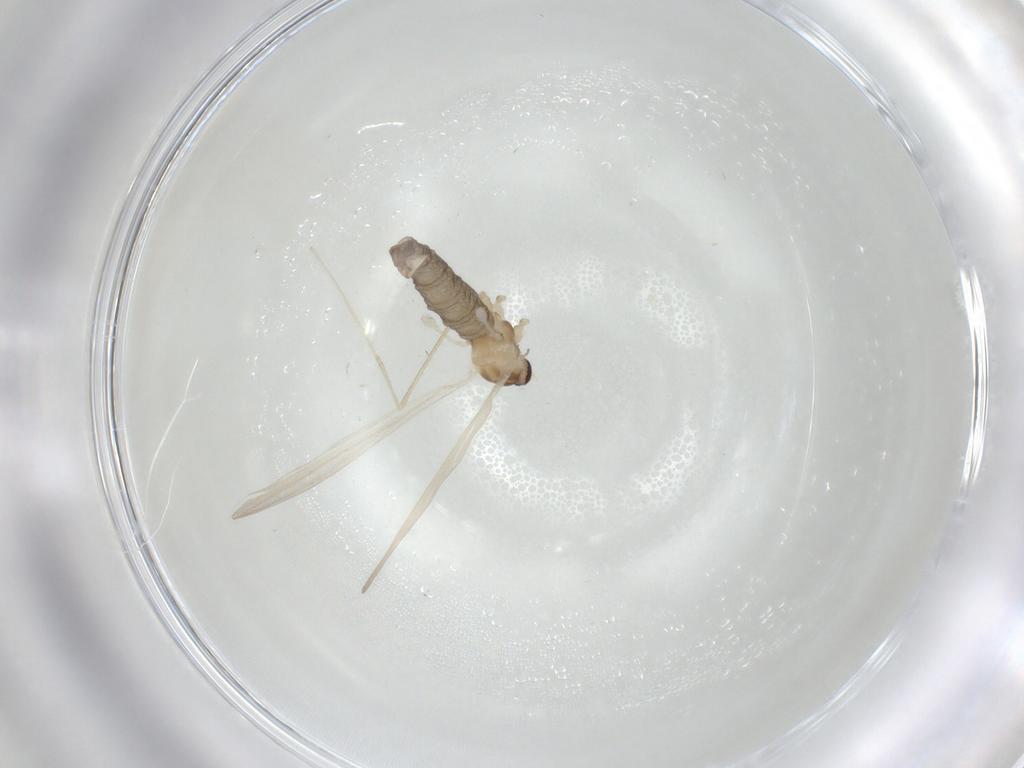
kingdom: Animalia
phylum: Arthropoda
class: Insecta
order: Diptera
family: Cecidomyiidae
